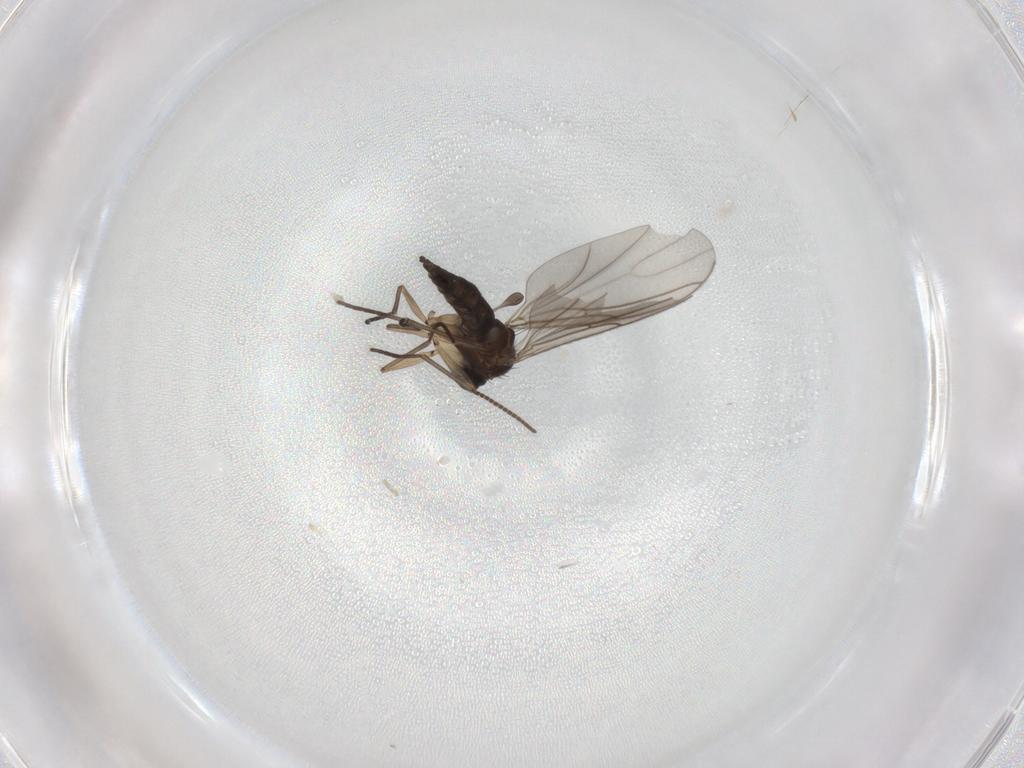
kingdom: Animalia
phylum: Arthropoda
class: Insecta
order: Diptera
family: Sciaridae
